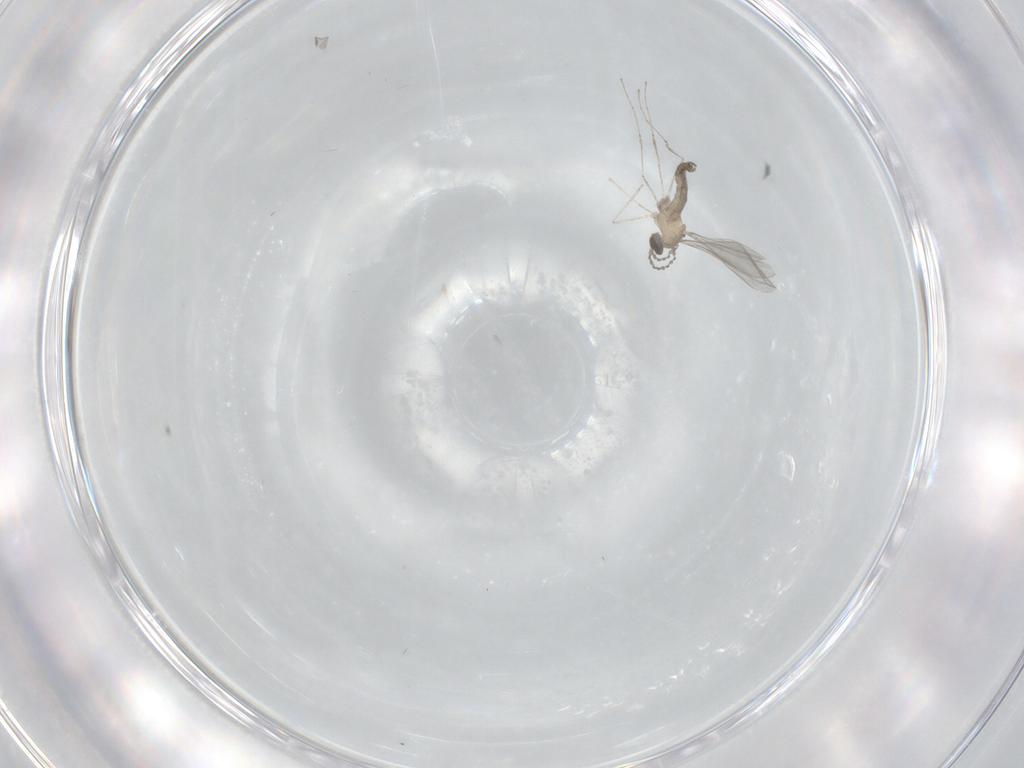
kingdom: Animalia
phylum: Arthropoda
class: Insecta
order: Diptera
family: Cecidomyiidae
